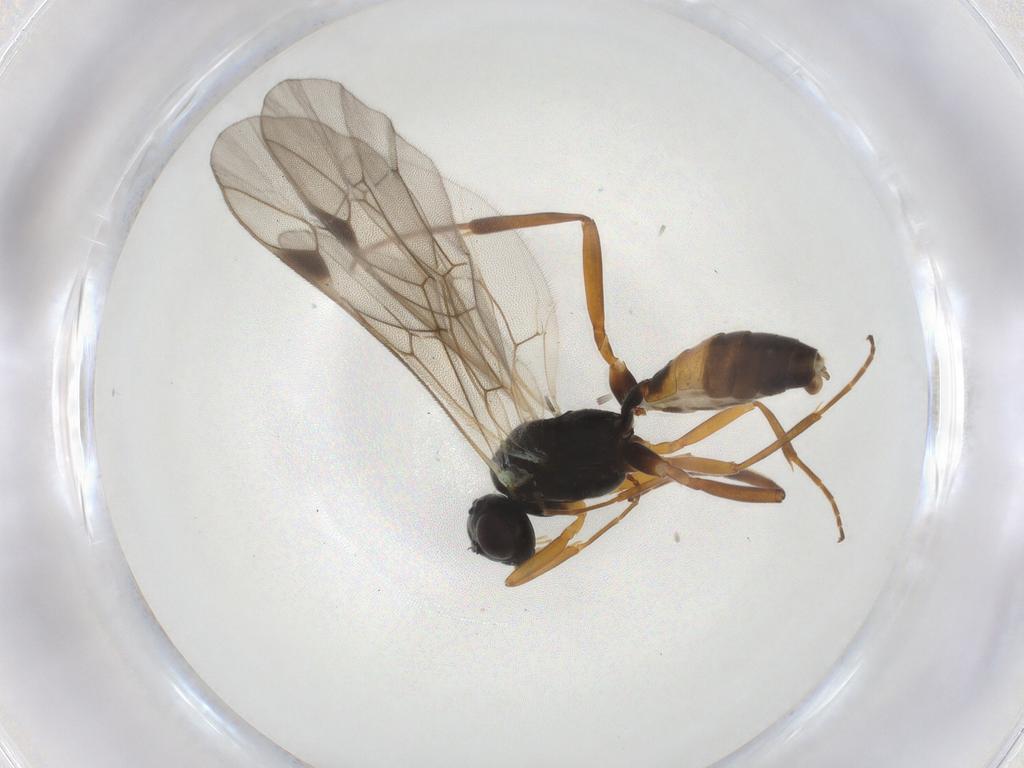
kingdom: Animalia
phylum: Arthropoda
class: Insecta
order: Hymenoptera
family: Ichneumonidae
